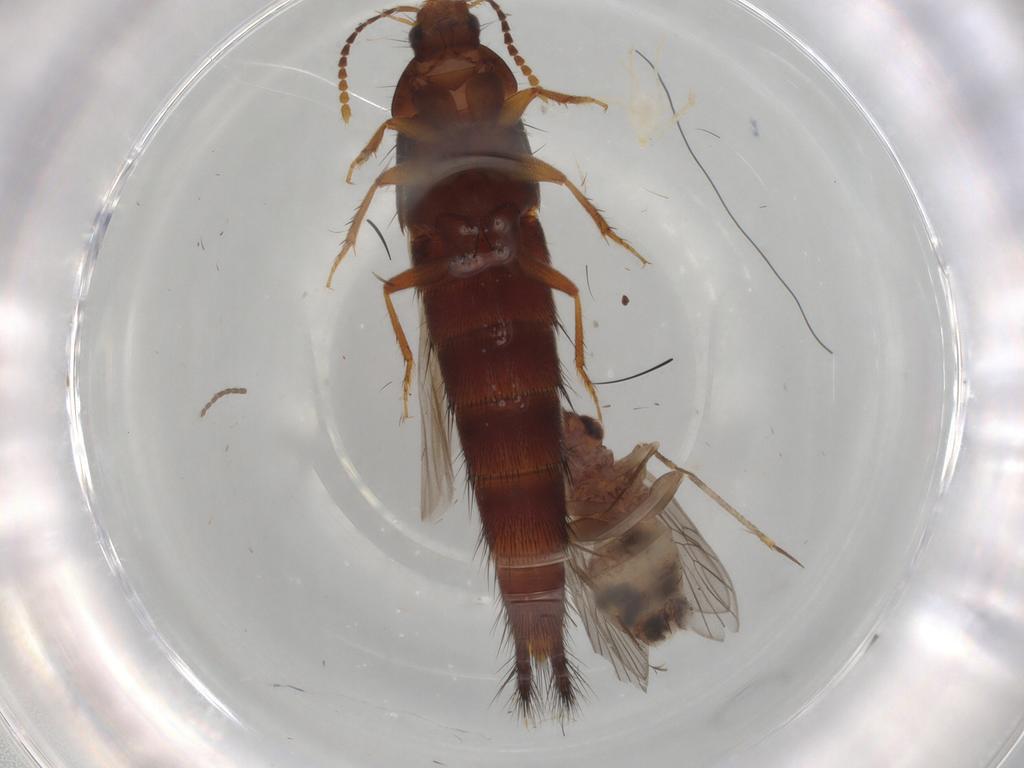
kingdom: Animalia
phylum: Arthropoda
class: Insecta
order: Psocodea
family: Lepidopsocidae
